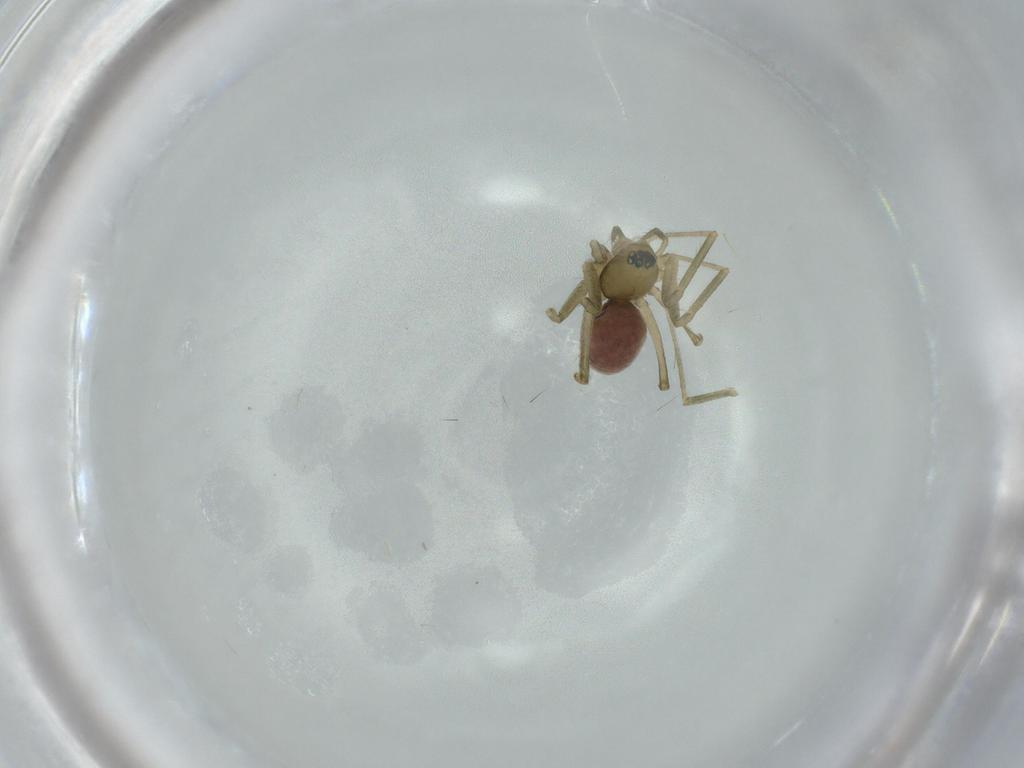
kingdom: Animalia
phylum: Arthropoda
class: Arachnida
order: Araneae
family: Linyphiidae
